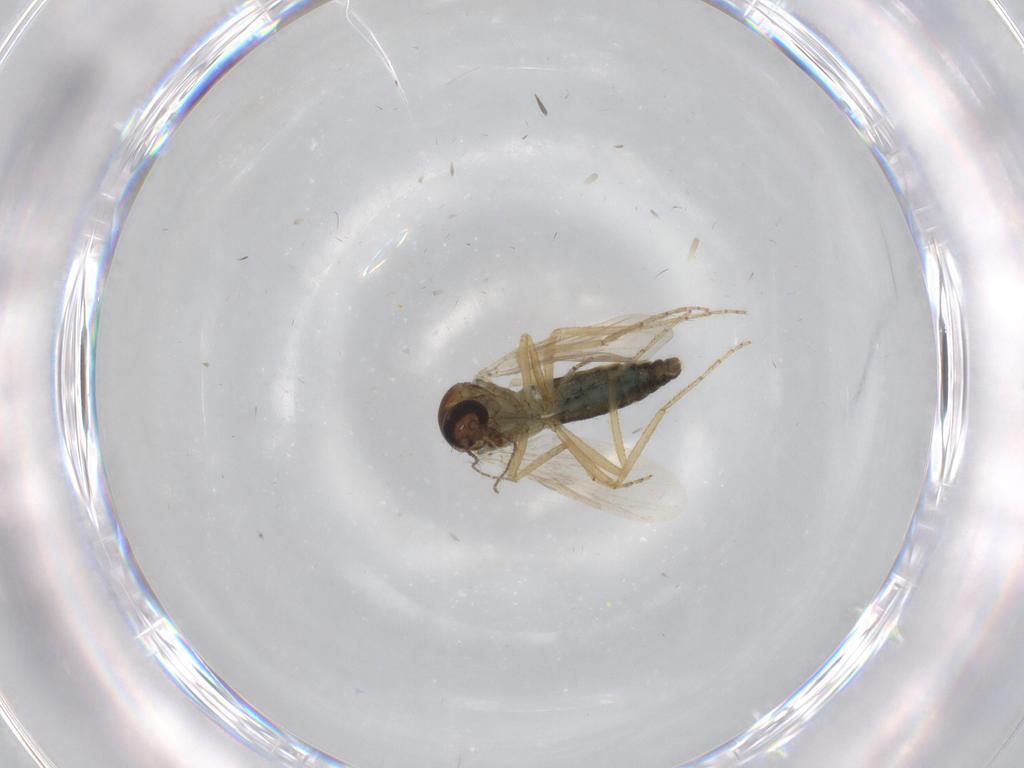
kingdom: Animalia
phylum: Arthropoda
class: Insecta
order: Diptera
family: Ceratopogonidae
